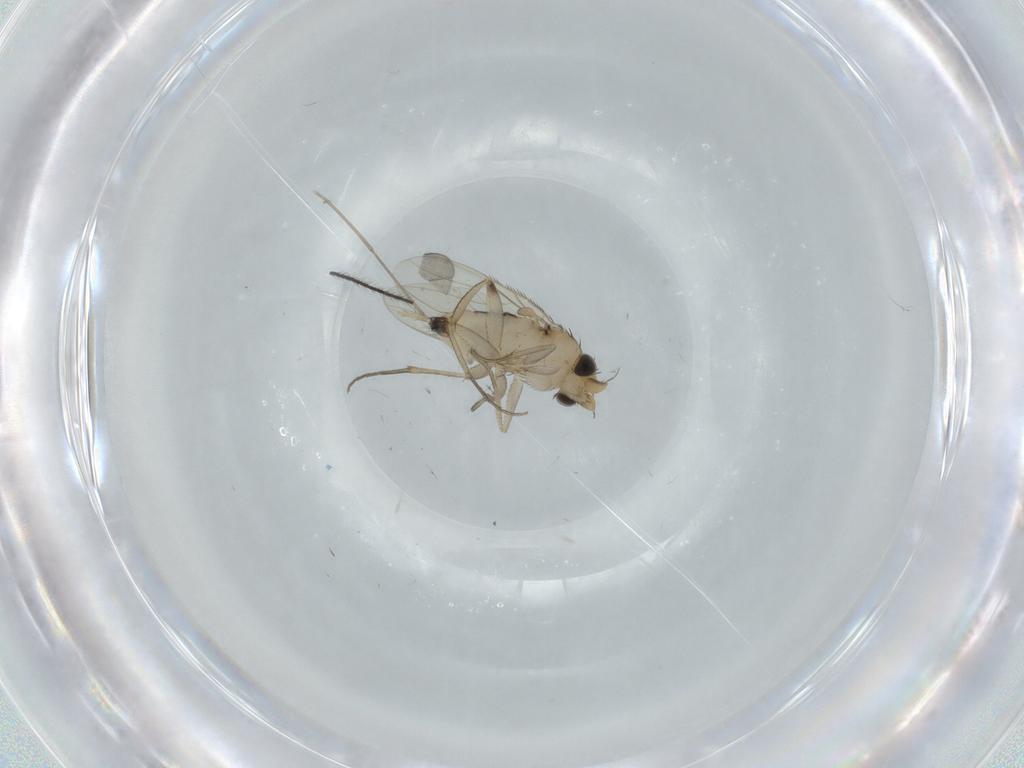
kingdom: Animalia
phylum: Arthropoda
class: Insecta
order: Diptera
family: Phoridae
